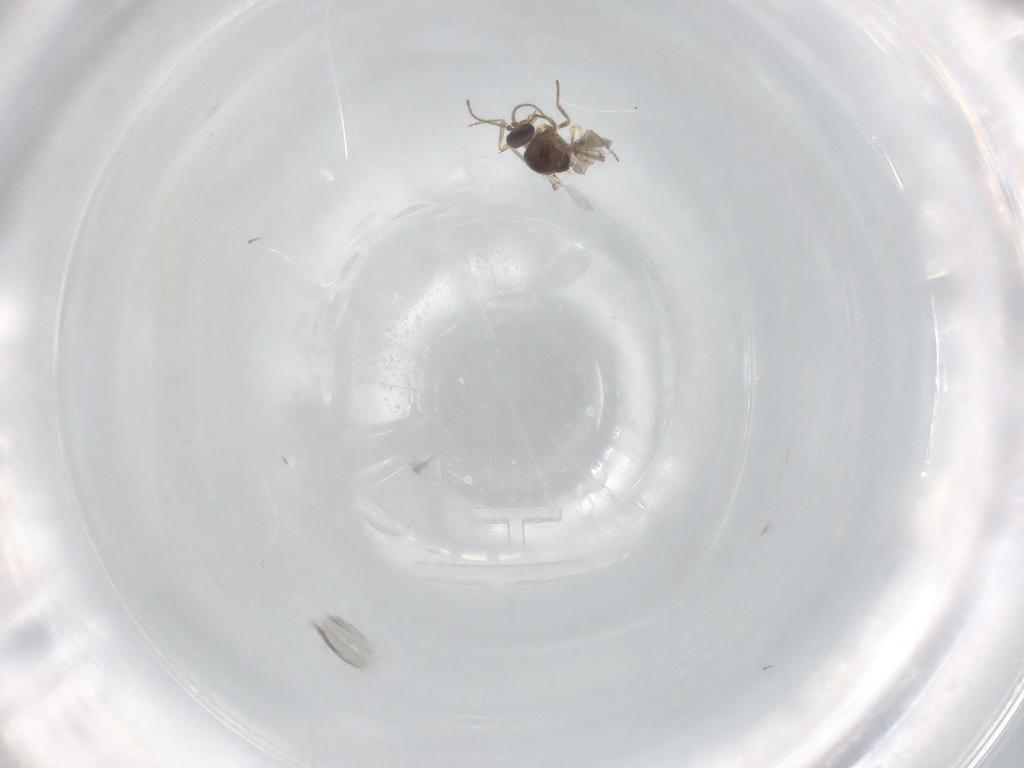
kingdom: Animalia
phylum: Arthropoda
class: Insecta
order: Diptera
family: Ceratopogonidae
